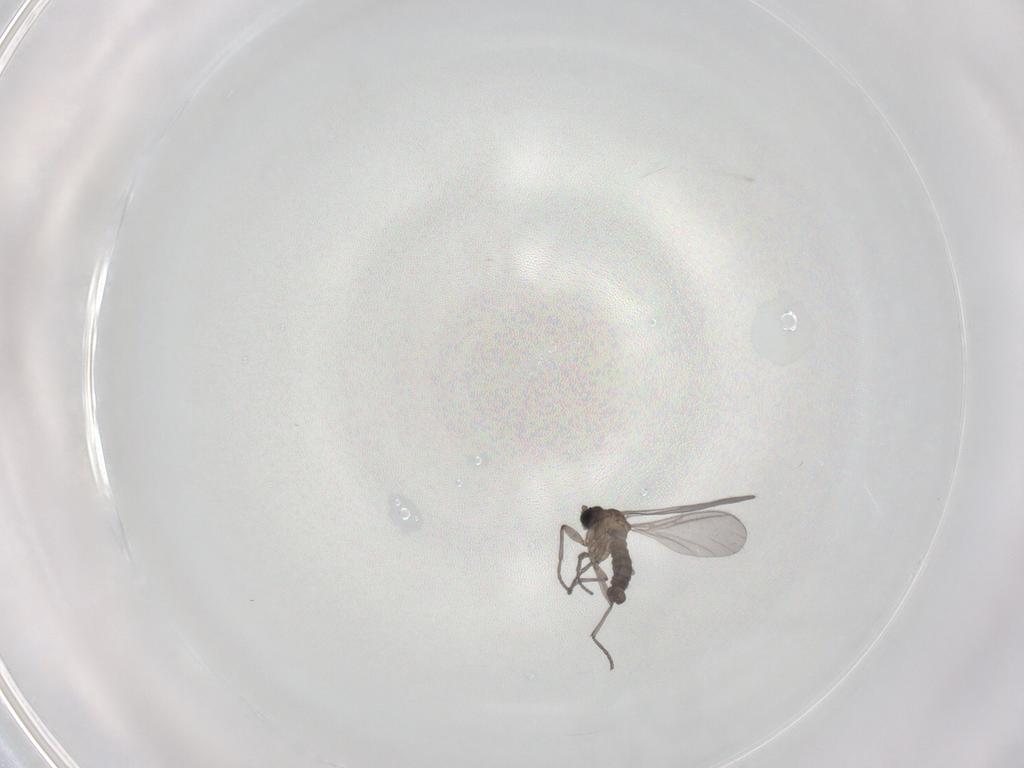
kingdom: Animalia
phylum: Arthropoda
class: Insecta
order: Diptera
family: Sciaridae
